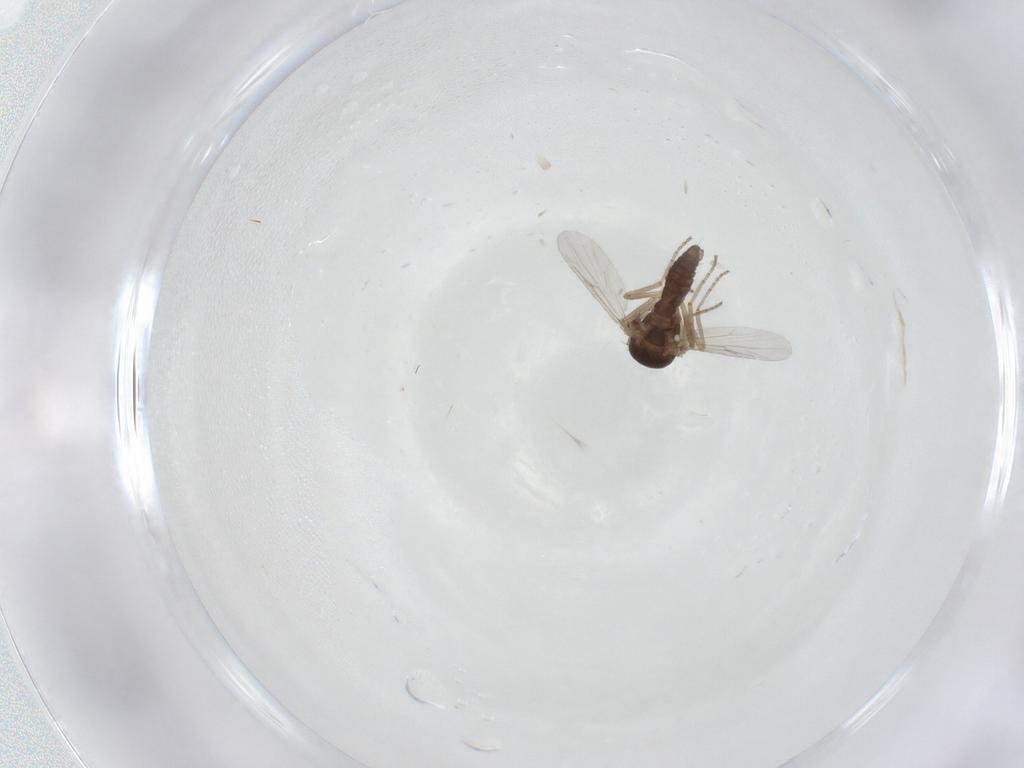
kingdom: Animalia
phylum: Arthropoda
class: Insecta
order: Diptera
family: Ceratopogonidae
